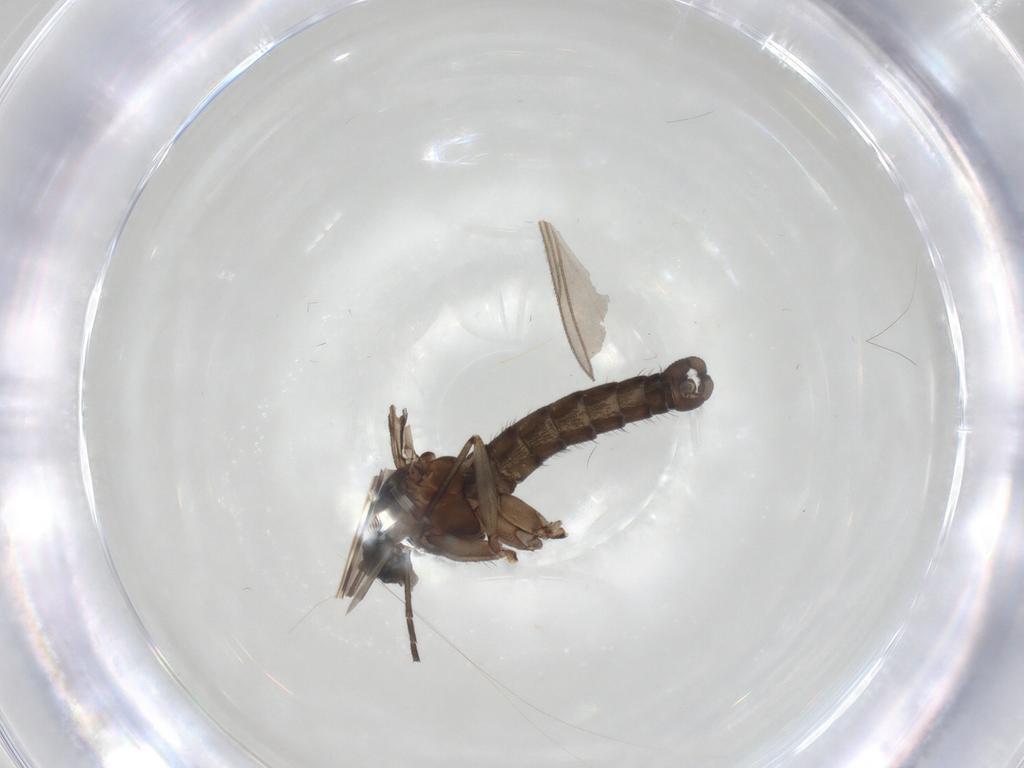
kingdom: Animalia
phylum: Arthropoda
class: Insecta
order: Diptera
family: Sciaridae
